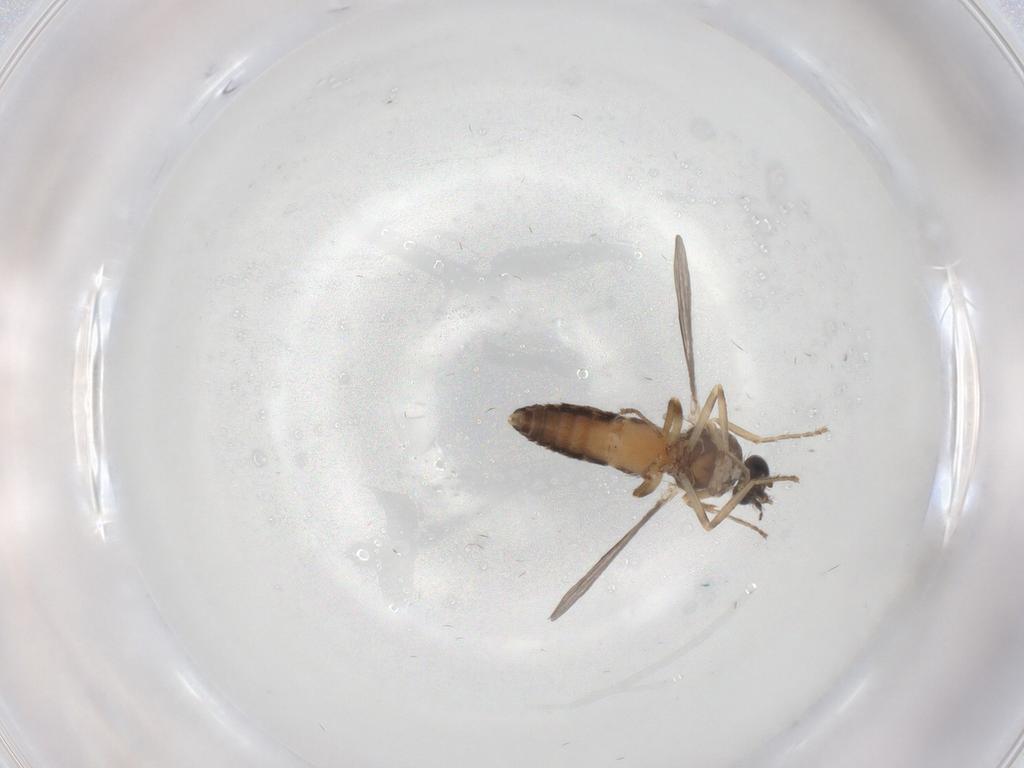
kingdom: Animalia
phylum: Arthropoda
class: Insecta
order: Diptera
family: Ceratopogonidae
